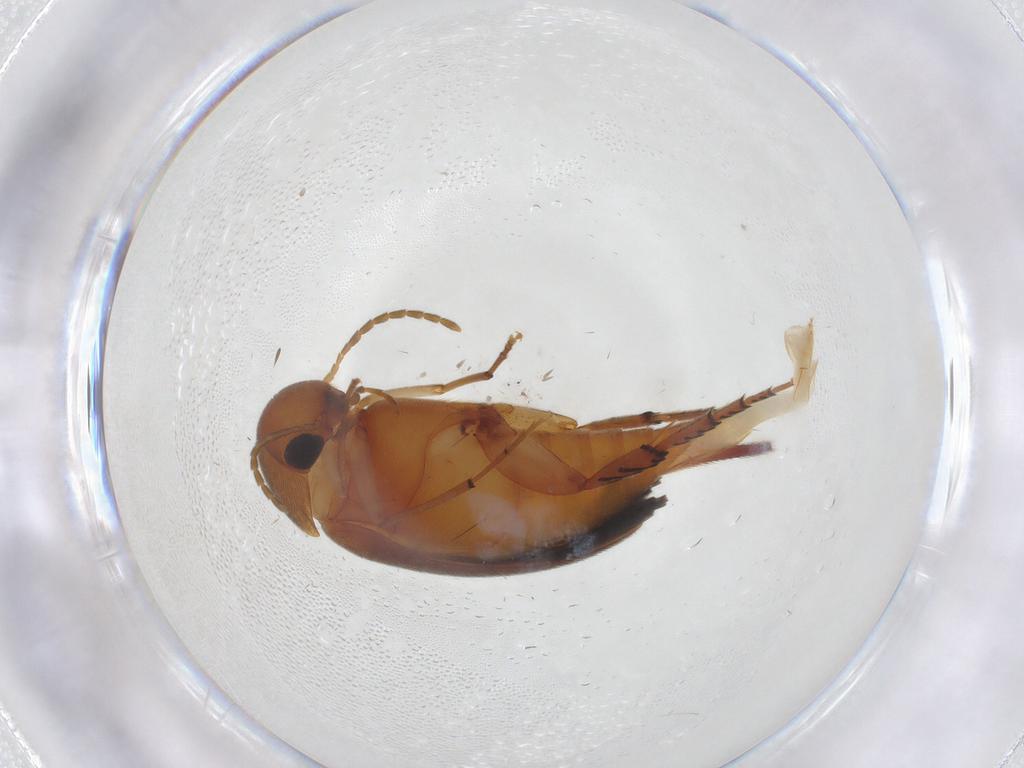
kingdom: Animalia
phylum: Arthropoda
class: Insecta
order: Coleoptera
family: Mordellidae
